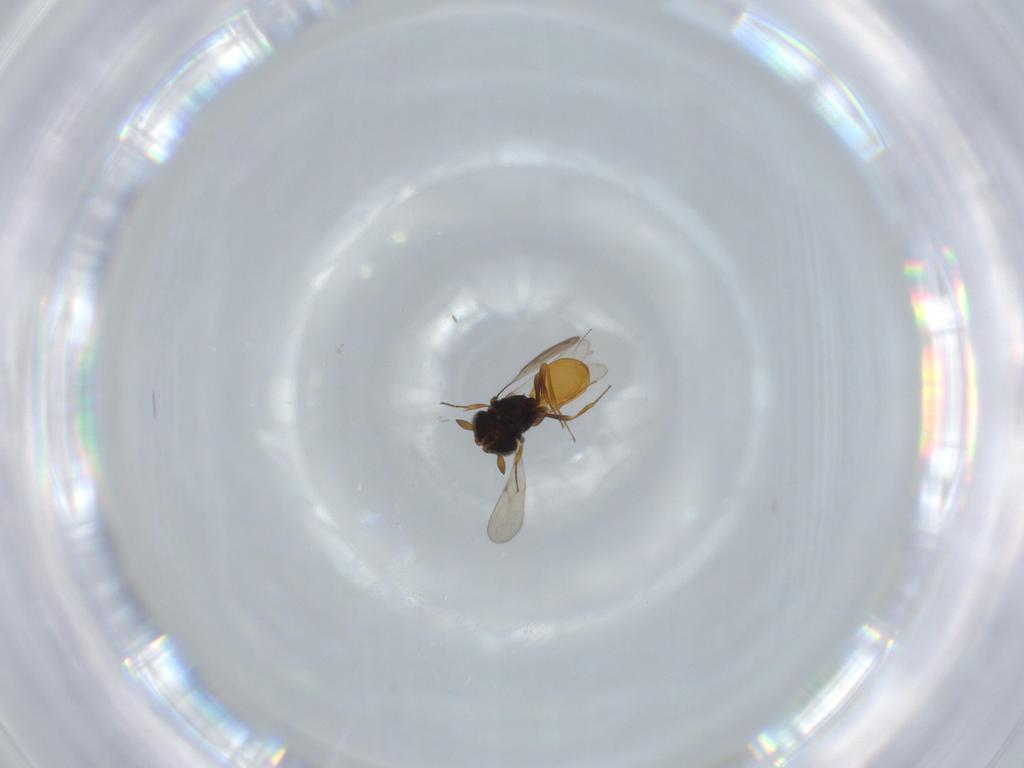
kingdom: Animalia
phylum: Arthropoda
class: Insecta
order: Hymenoptera
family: Scelionidae
